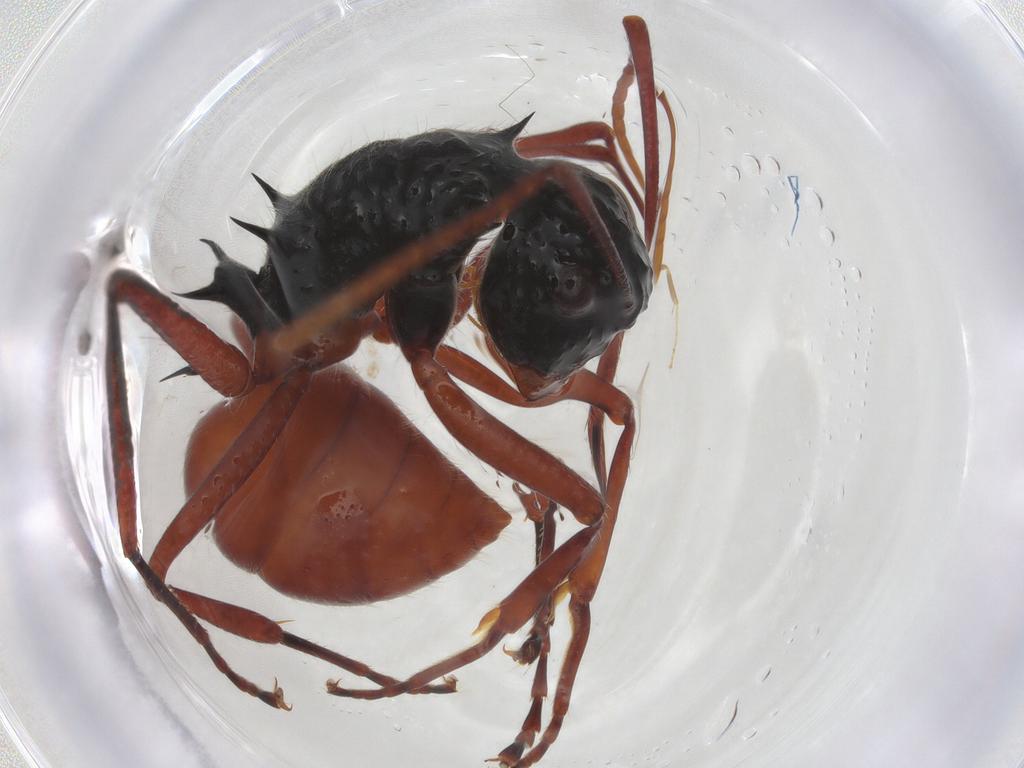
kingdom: Animalia
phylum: Arthropoda
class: Insecta
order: Hymenoptera
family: Formicidae
